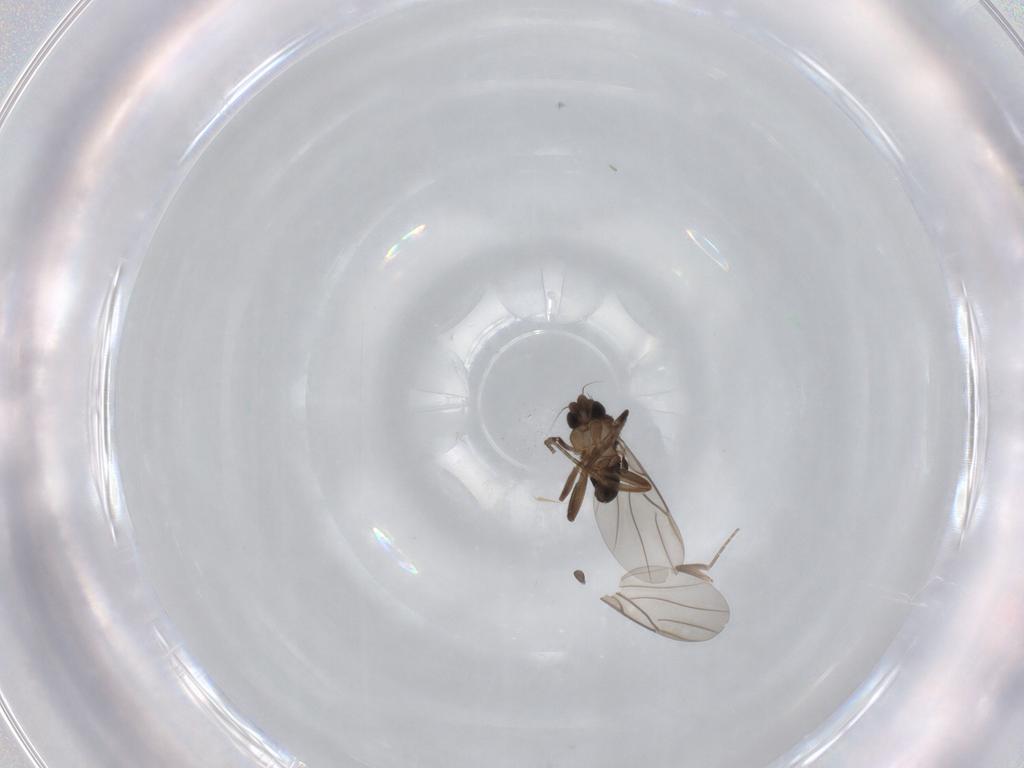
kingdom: Animalia
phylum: Arthropoda
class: Insecta
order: Diptera
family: Phoridae
